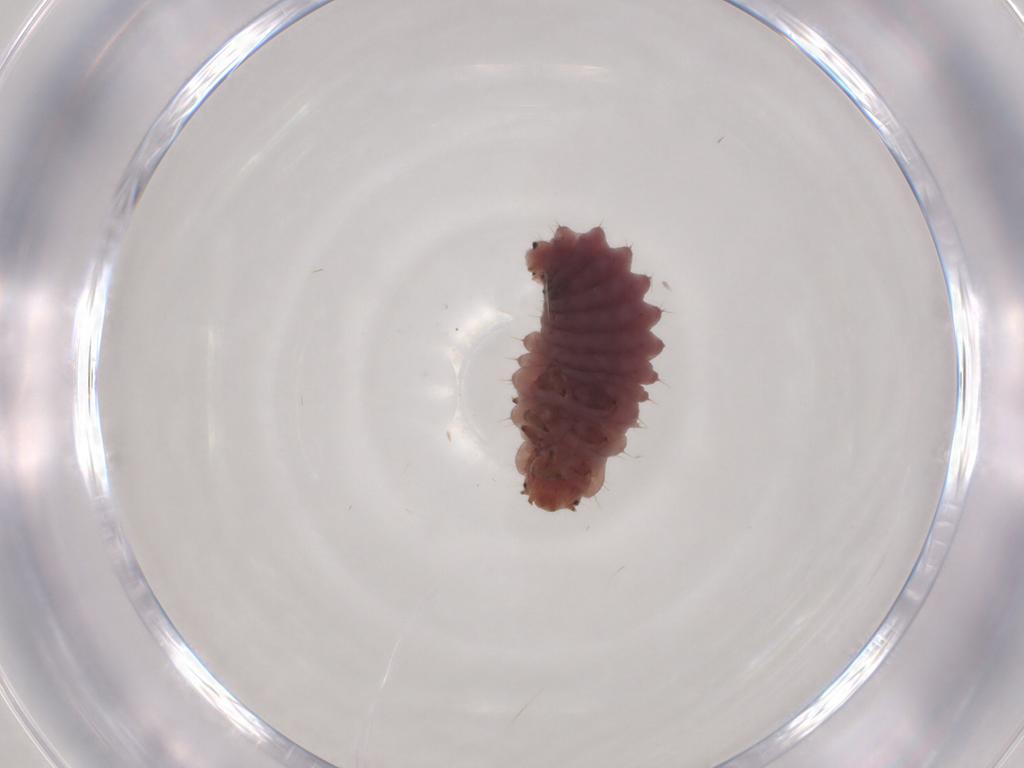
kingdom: Animalia
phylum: Arthropoda
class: Insecta
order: Coleoptera
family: Coccinellidae
